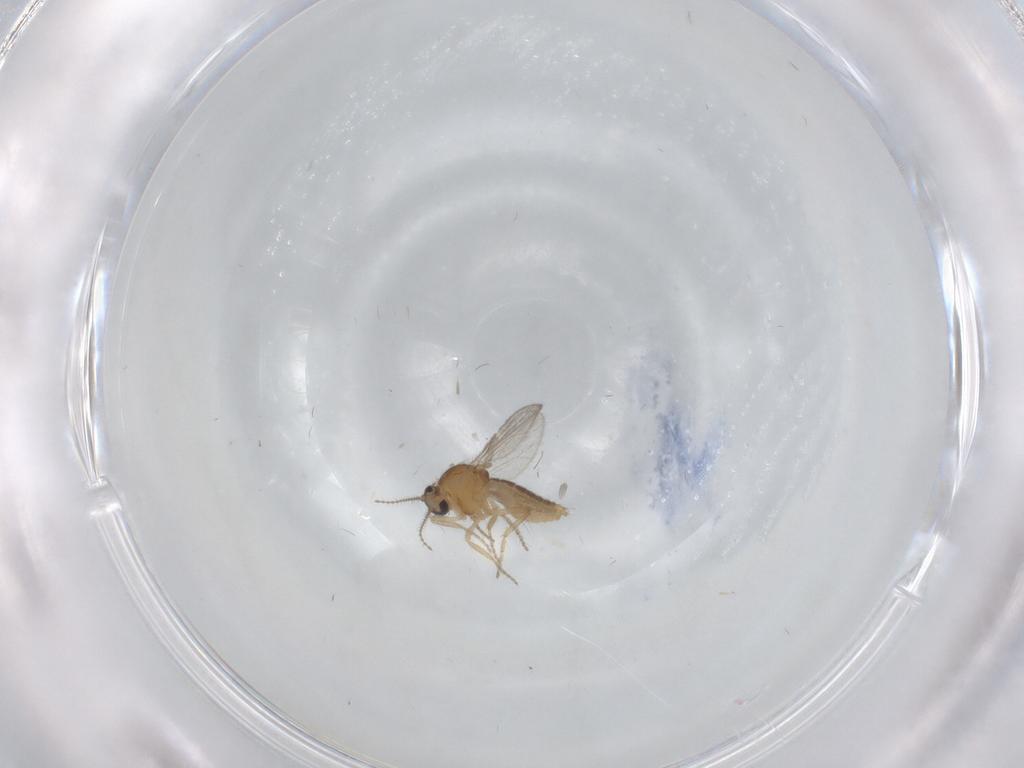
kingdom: Animalia
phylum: Arthropoda
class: Insecta
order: Diptera
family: Ceratopogonidae
